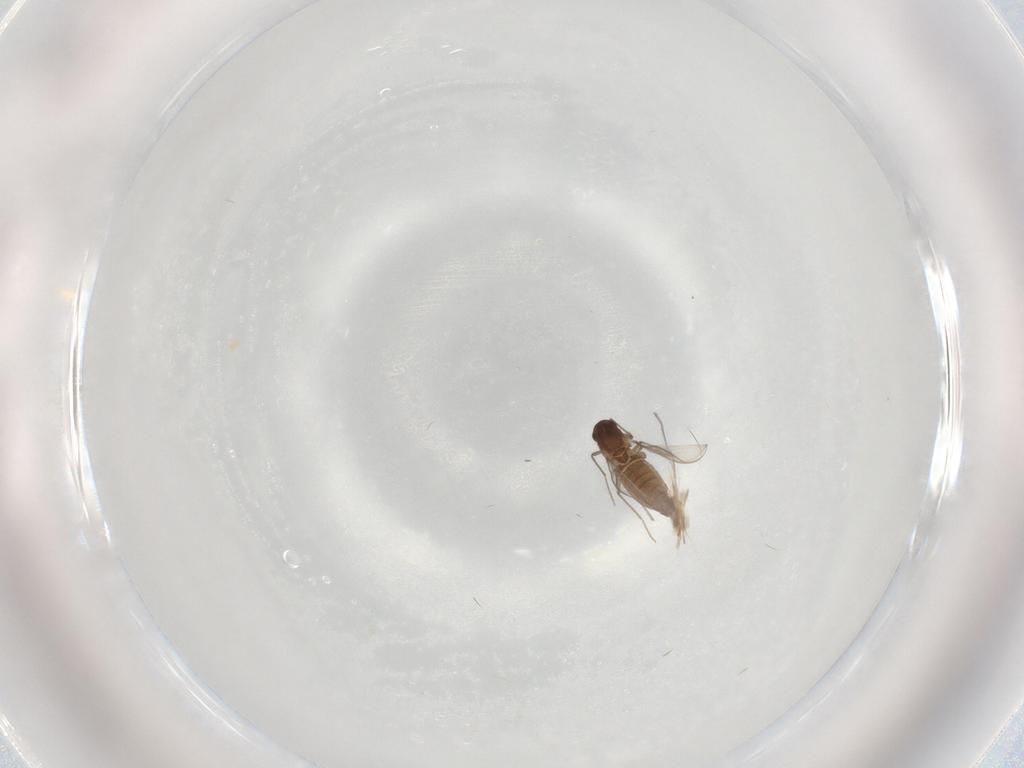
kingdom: Animalia
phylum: Arthropoda
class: Insecta
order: Diptera
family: Chironomidae
